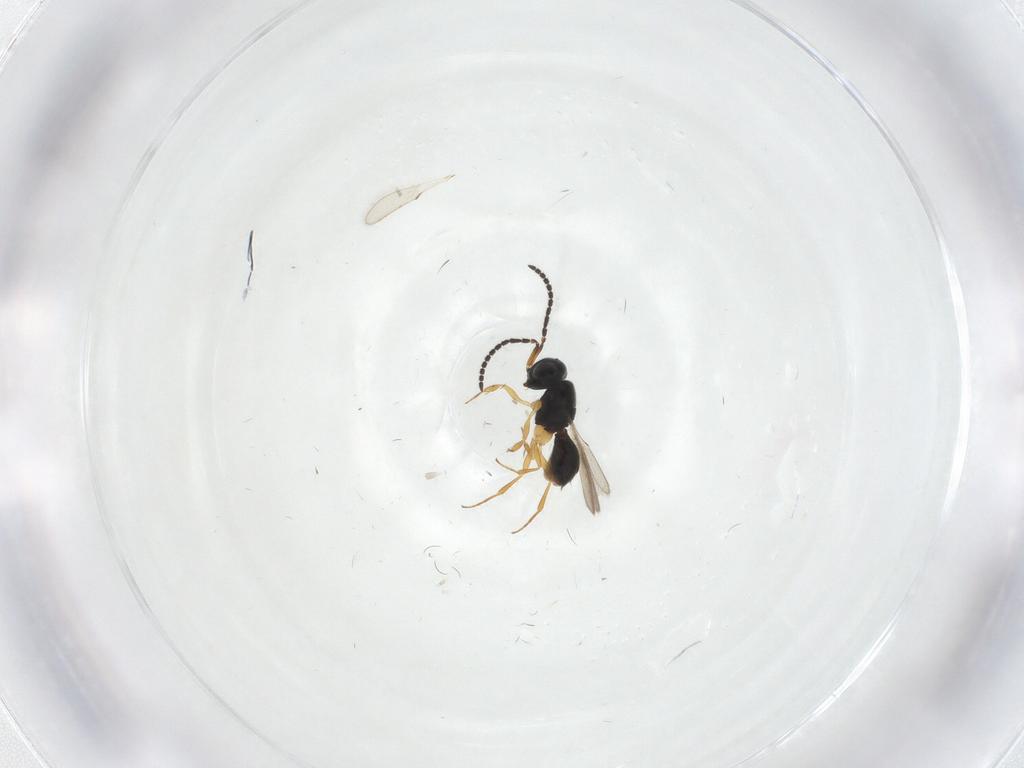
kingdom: Animalia
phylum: Arthropoda
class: Insecta
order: Hymenoptera
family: Scelionidae
